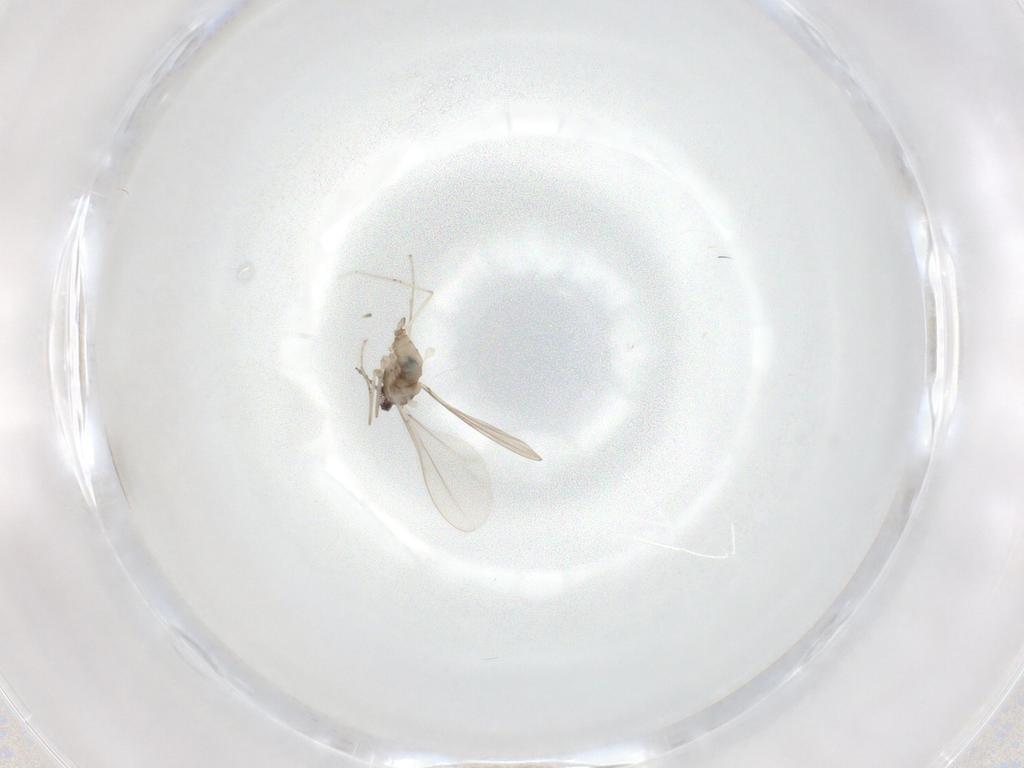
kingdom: Animalia
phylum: Arthropoda
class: Insecta
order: Diptera
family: Cecidomyiidae
